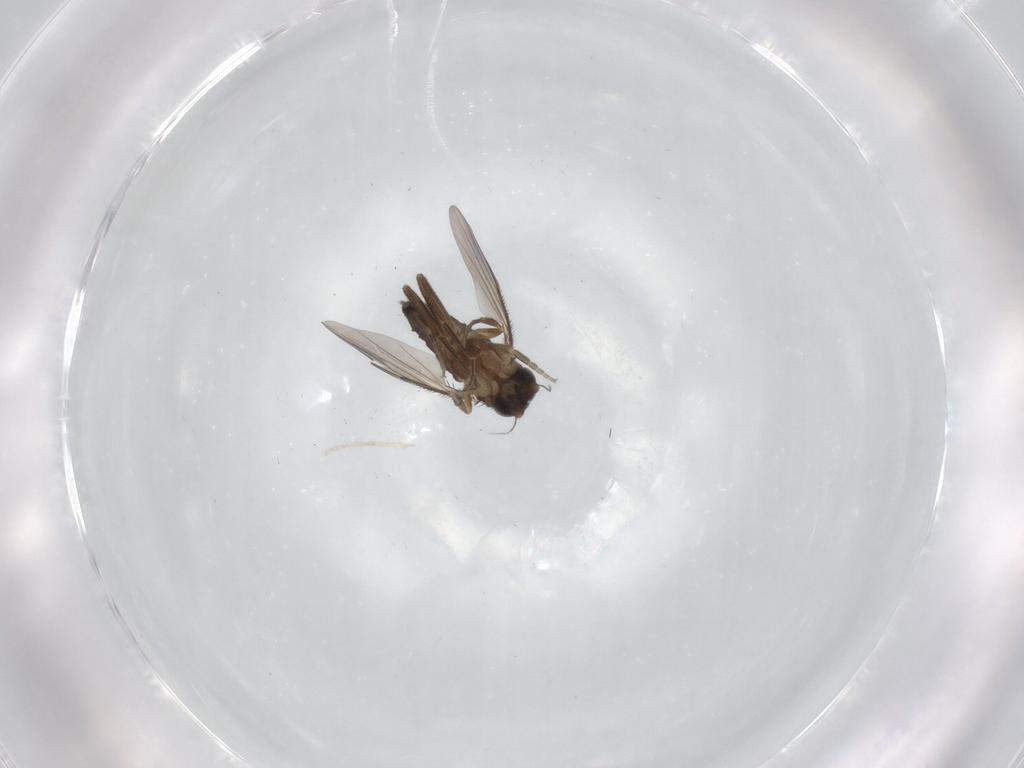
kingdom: Animalia
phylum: Arthropoda
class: Insecta
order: Diptera
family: Phoridae
